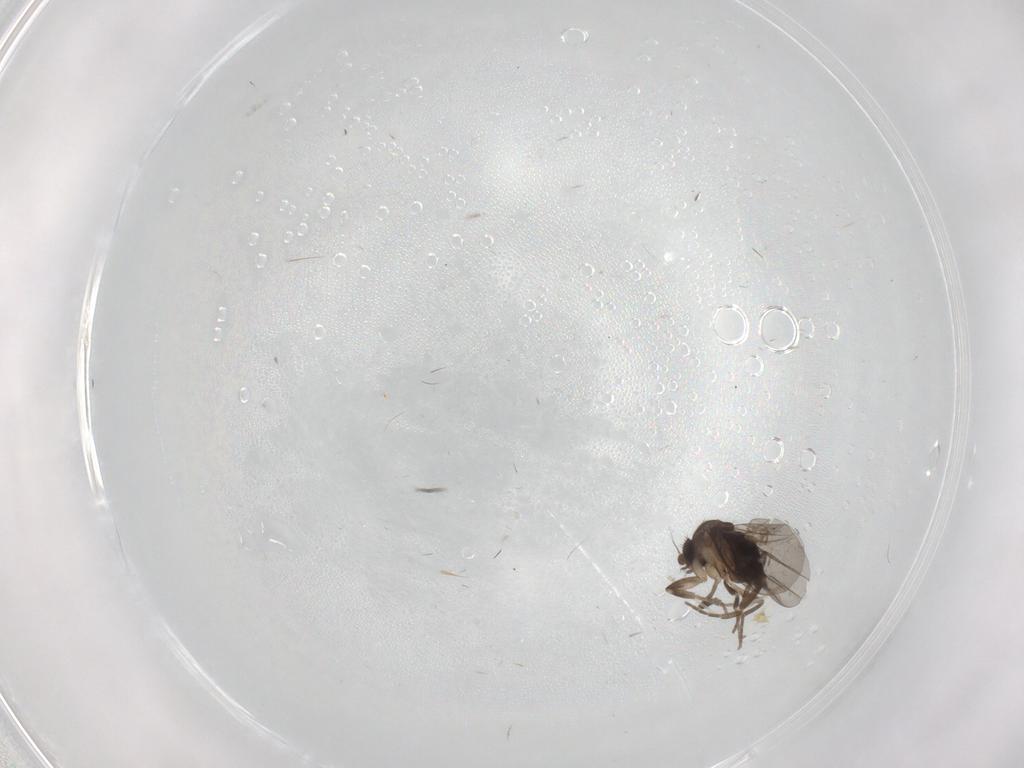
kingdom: Animalia
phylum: Arthropoda
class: Insecta
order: Diptera
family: Cecidomyiidae
